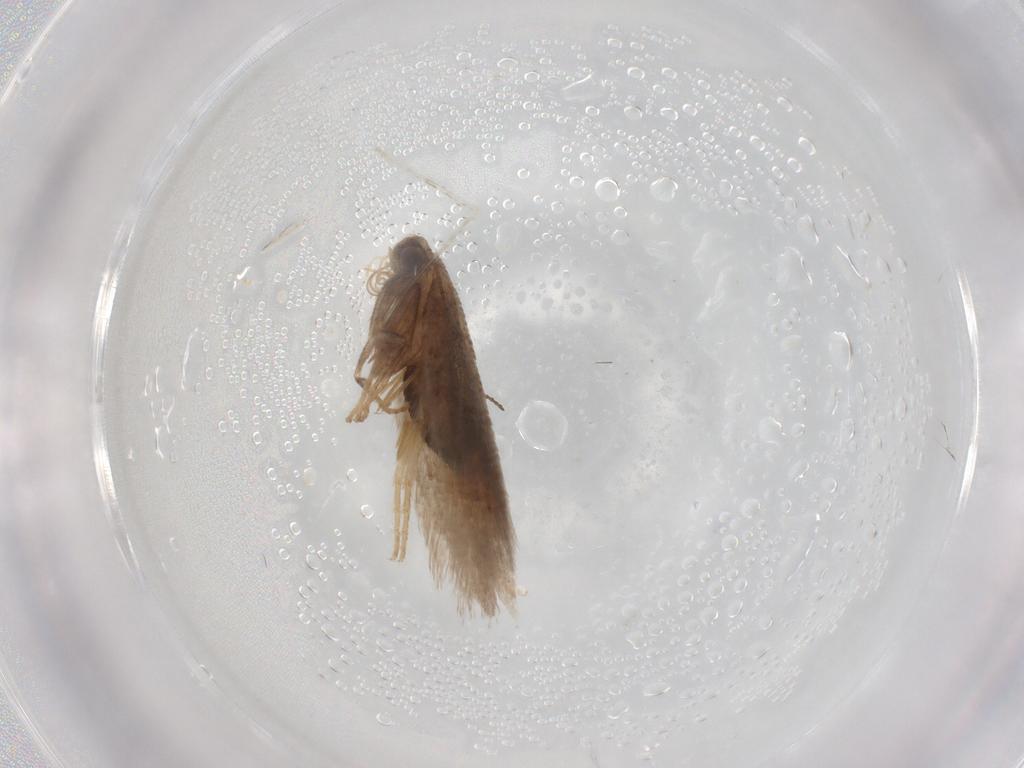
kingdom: Animalia
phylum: Arthropoda
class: Insecta
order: Lepidoptera
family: Nepticulidae
